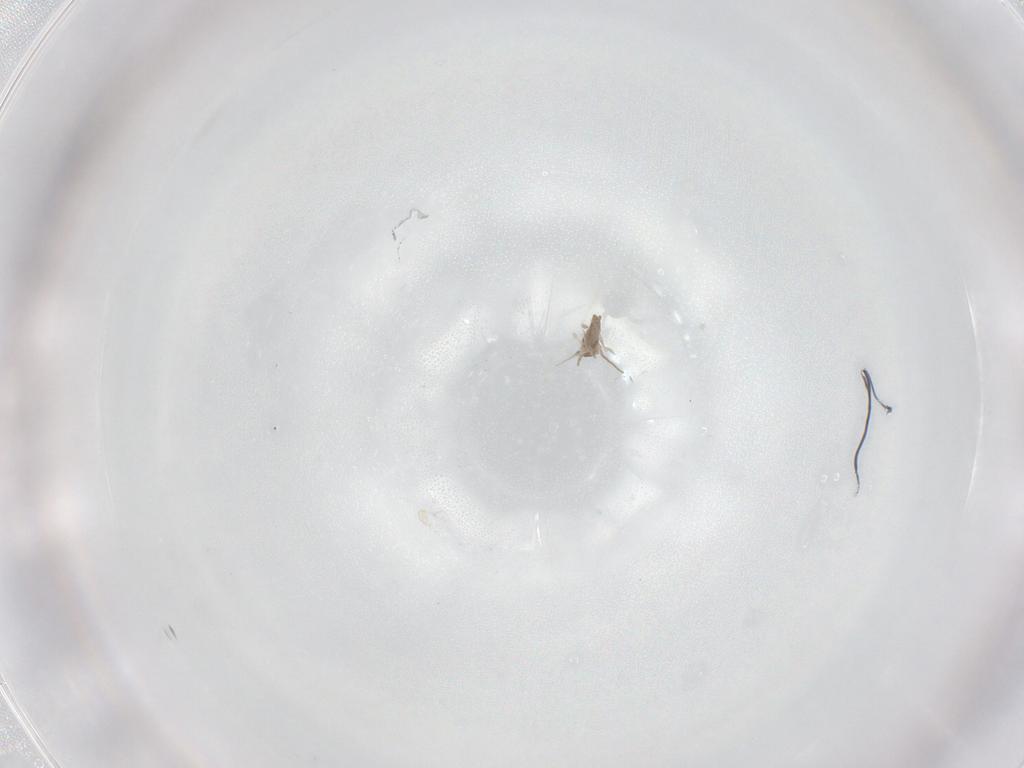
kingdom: Animalia
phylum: Arthropoda
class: Insecta
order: Diptera
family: Cecidomyiidae
